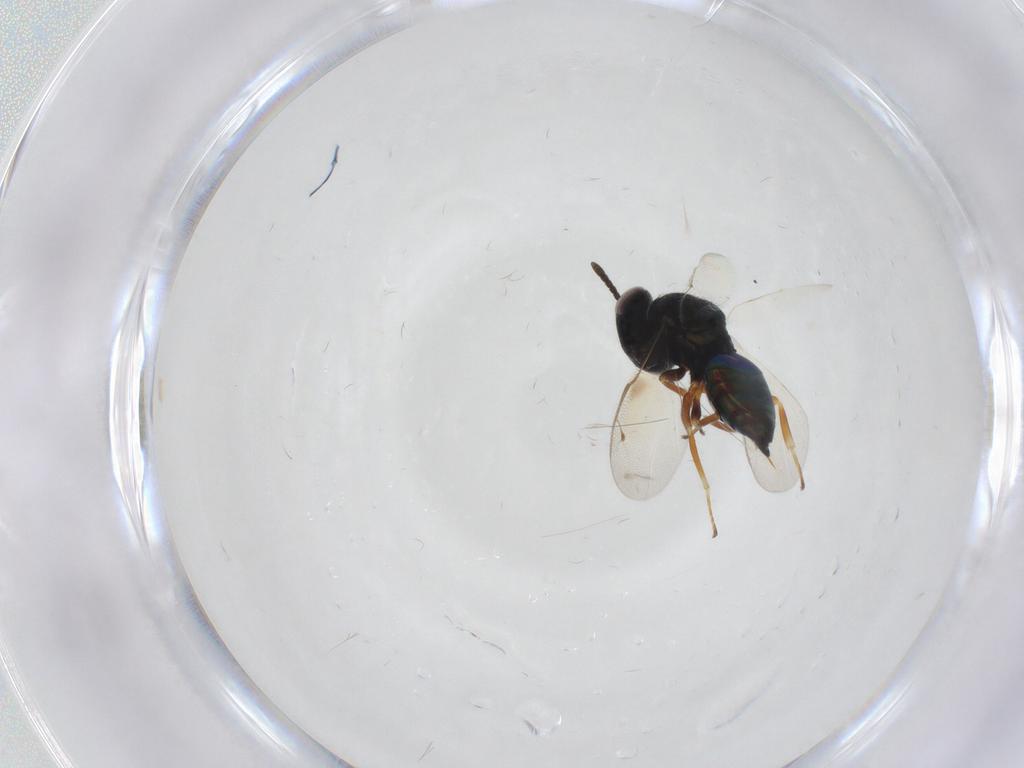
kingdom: Animalia
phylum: Arthropoda
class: Insecta
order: Hymenoptera
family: Pteromalidae
